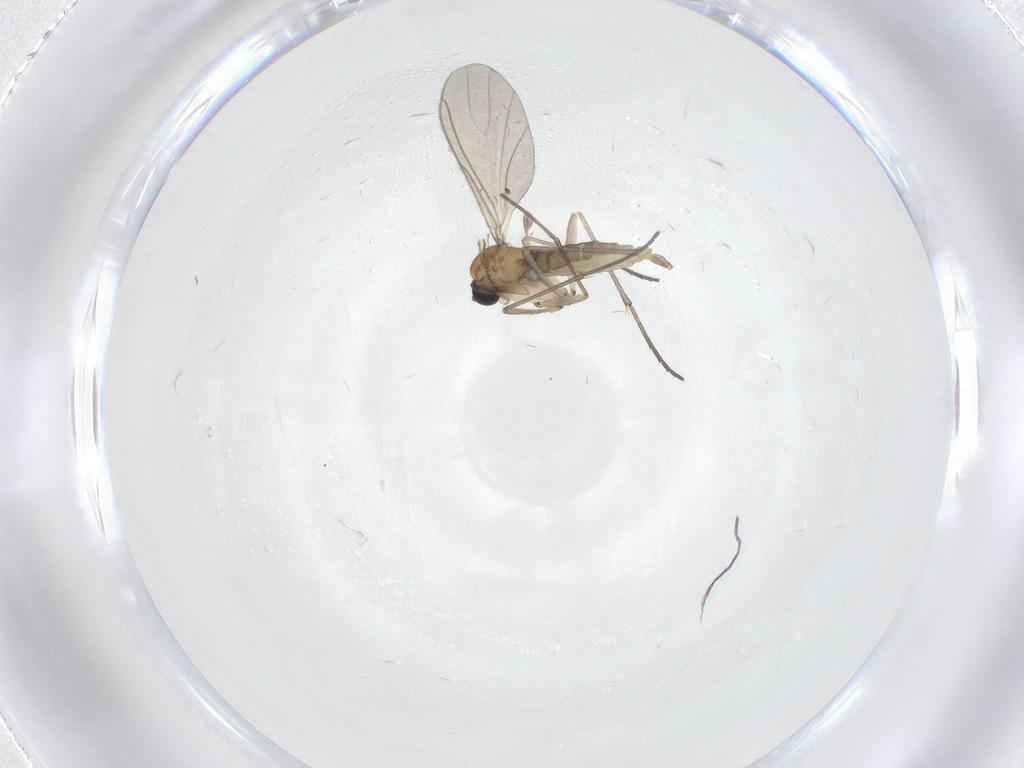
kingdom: Animalia
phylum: Arthropoda
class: Insecta
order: Diptera
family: Sciaridae
